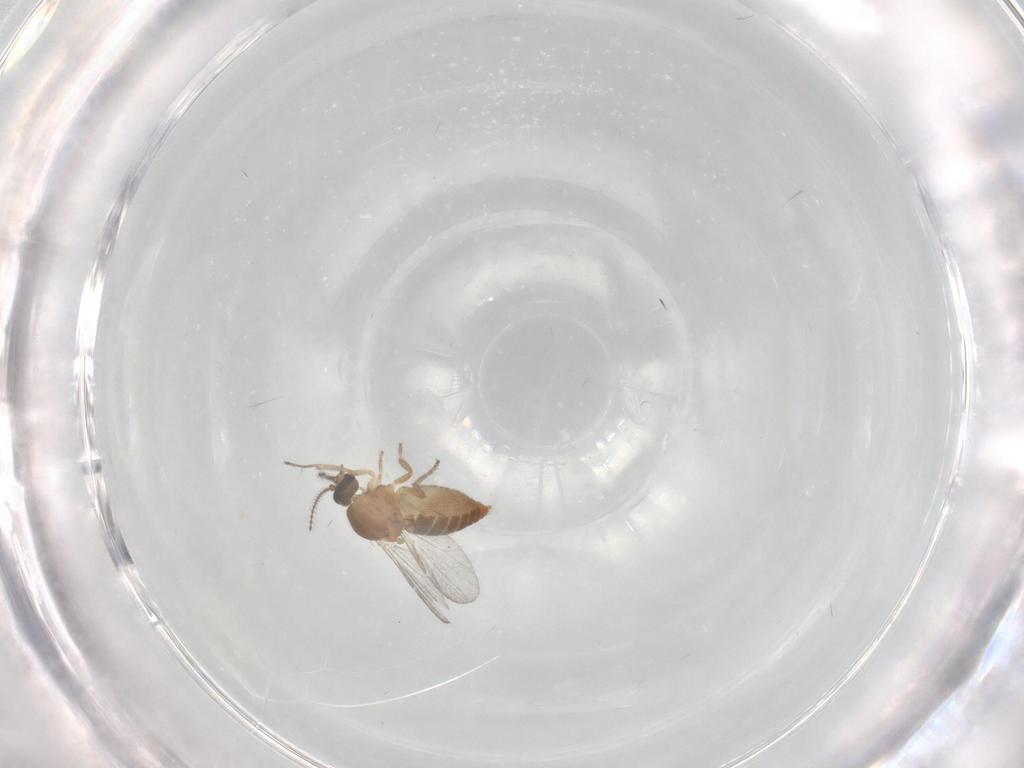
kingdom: Animalia
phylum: Arthropoda
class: Insecta
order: Diptera
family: Ceratopogonidae
